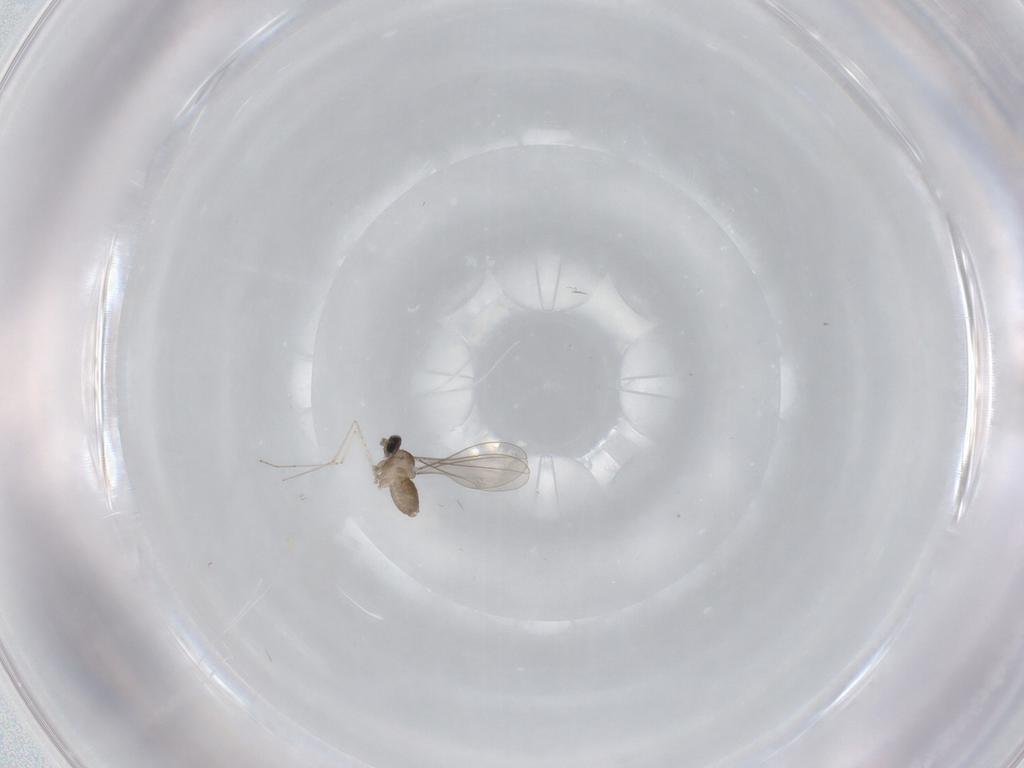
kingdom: Animalia
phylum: Arthropoda
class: Insecta
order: Diptera
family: Cecidomyiidae
